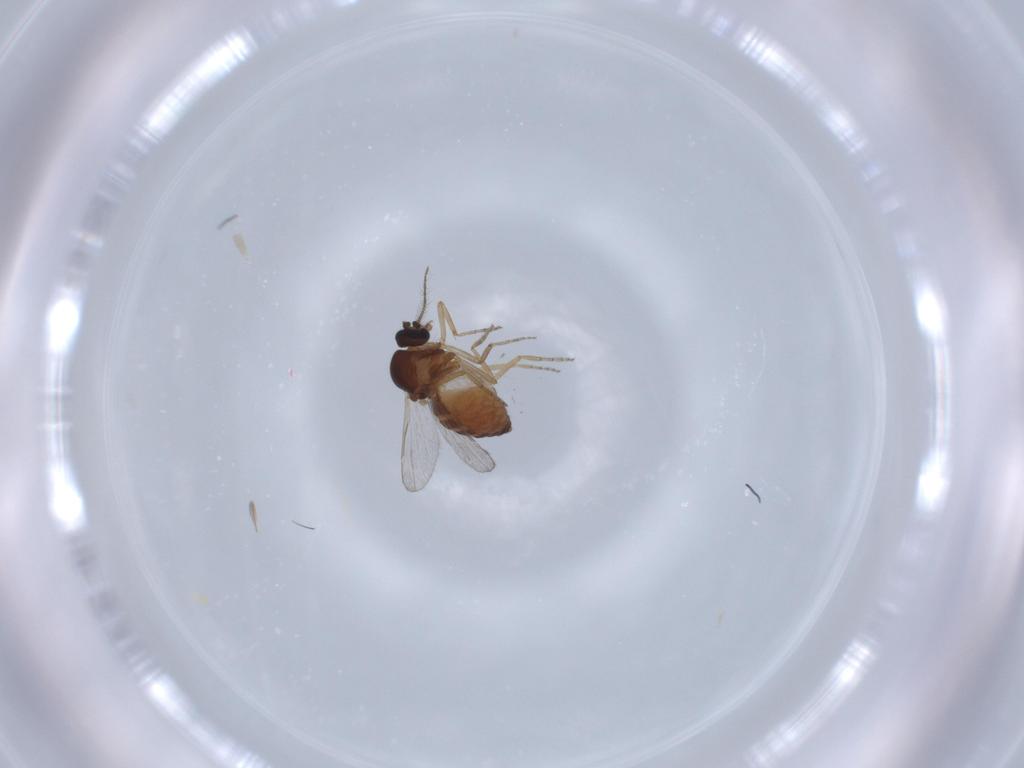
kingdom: Animalia
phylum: Arthropoda
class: Insecta
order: Diptera
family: Ceratopogonidae
